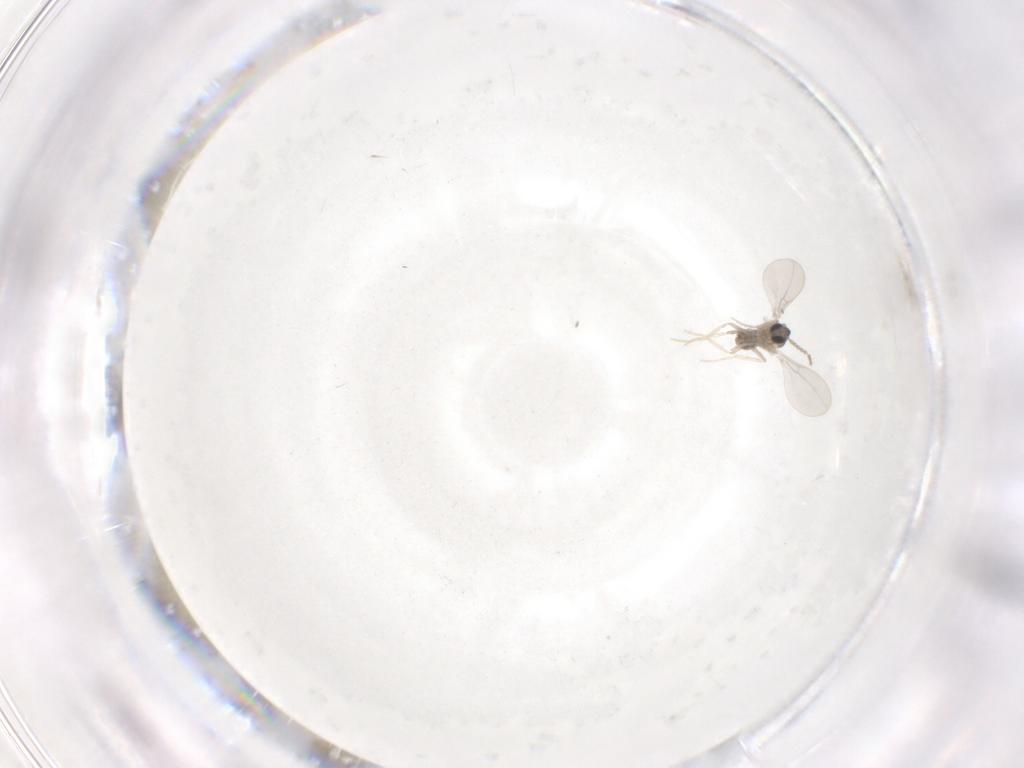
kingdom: Animalia
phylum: Arthropoda
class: Insecta
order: Diptera
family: Cecidomyiidae
